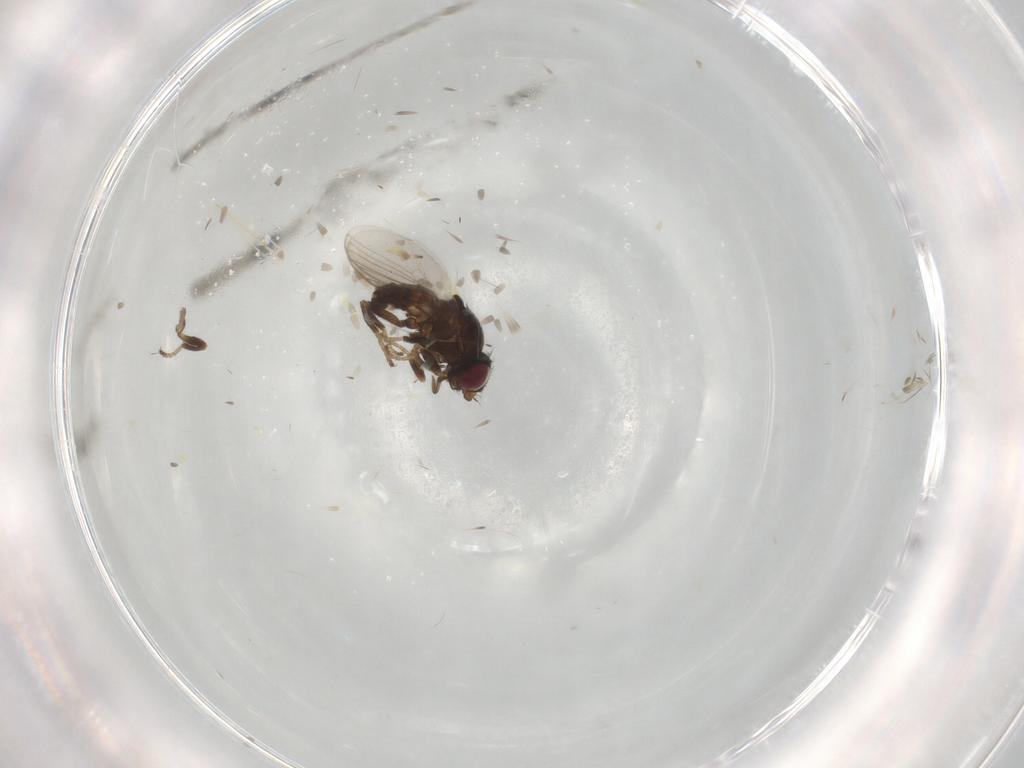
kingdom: Animalia
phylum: Arthropoda
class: Insecta
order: Diptera
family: Chloropidae
